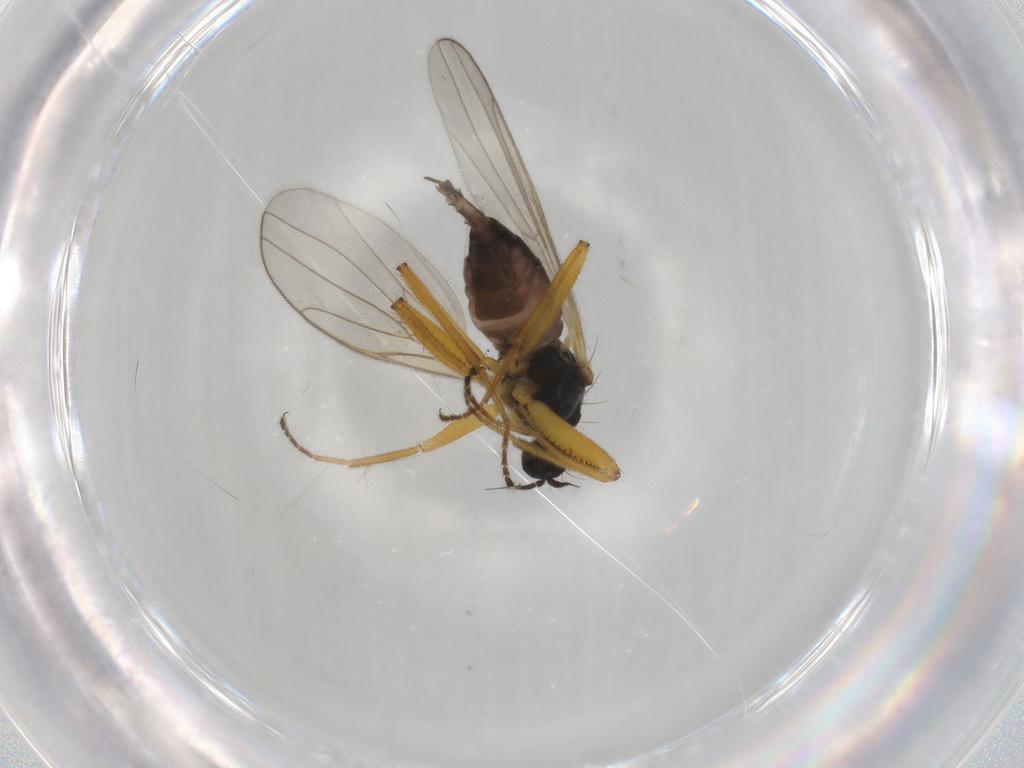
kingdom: Animalia
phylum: Arthropoda
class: Insecta
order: Diptera
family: Hybotidae
